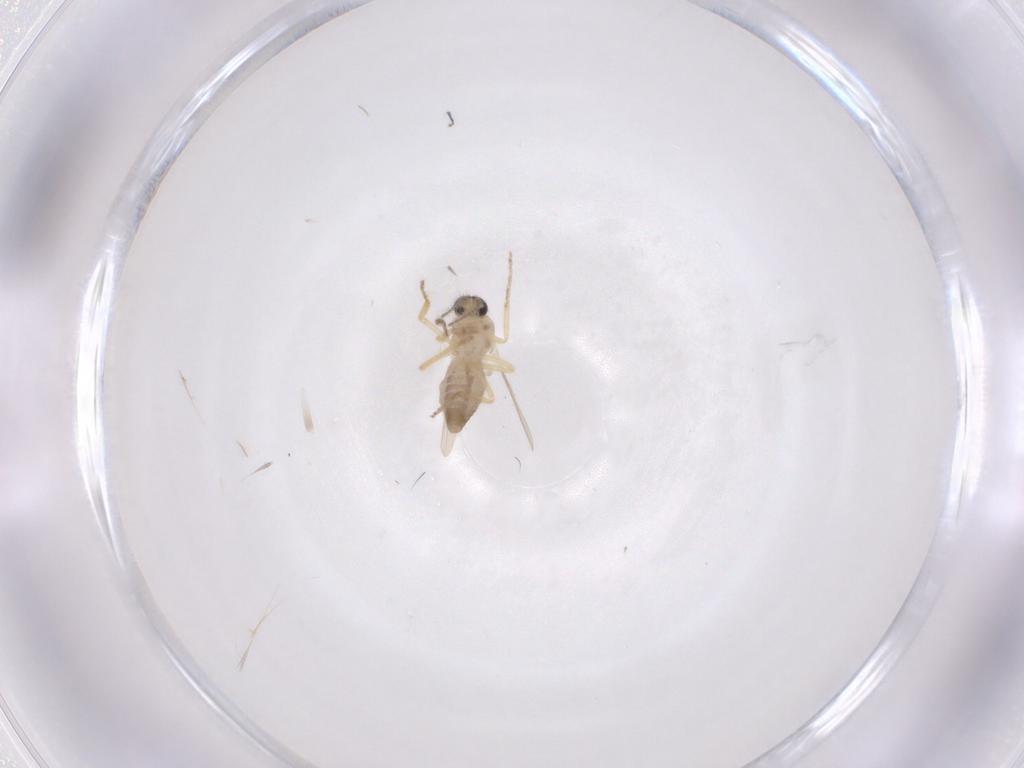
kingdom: Animalia
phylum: Arthropoda
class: Insecta
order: Diptera
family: Ceratopogonidae
